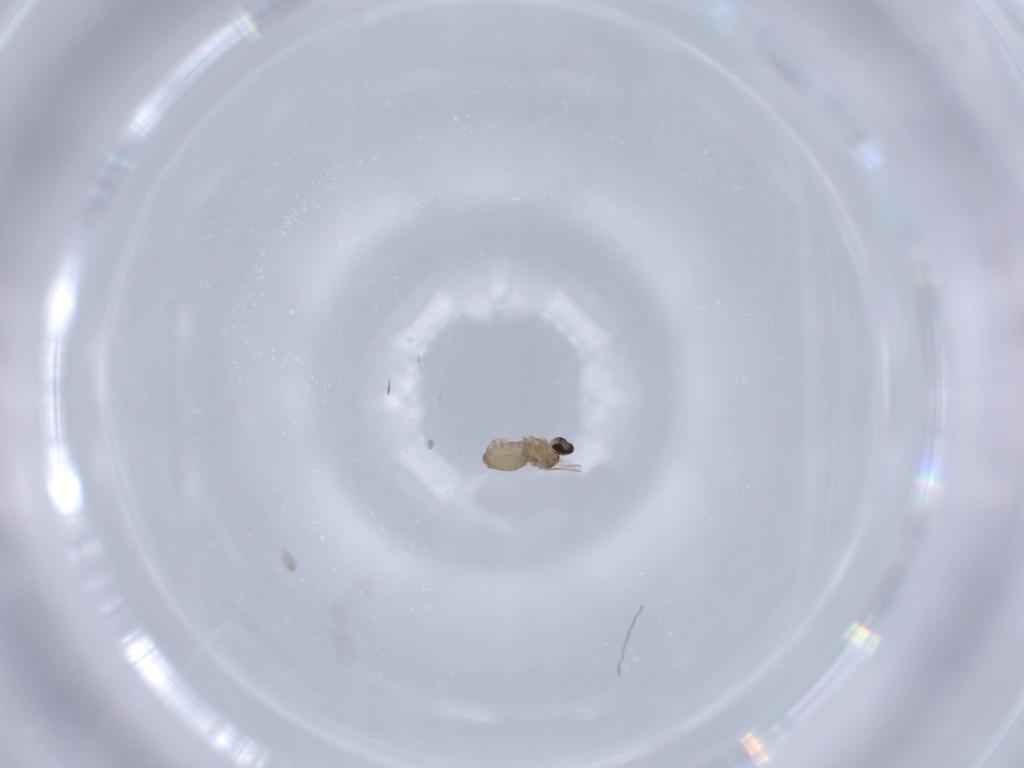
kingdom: Animalia
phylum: Arthropoda
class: Insecta
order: Diptera
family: Cecidomyiidae
